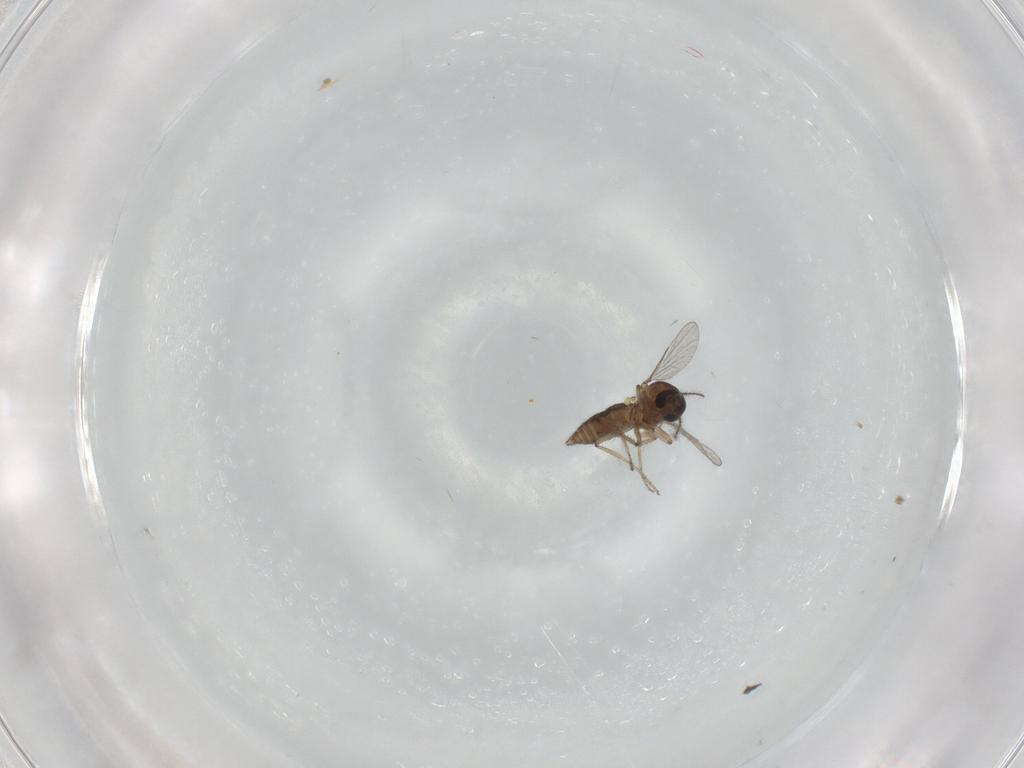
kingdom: Animalia
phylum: Arthropoda
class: Insecta
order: Diptera
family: Ceratopogonidae
